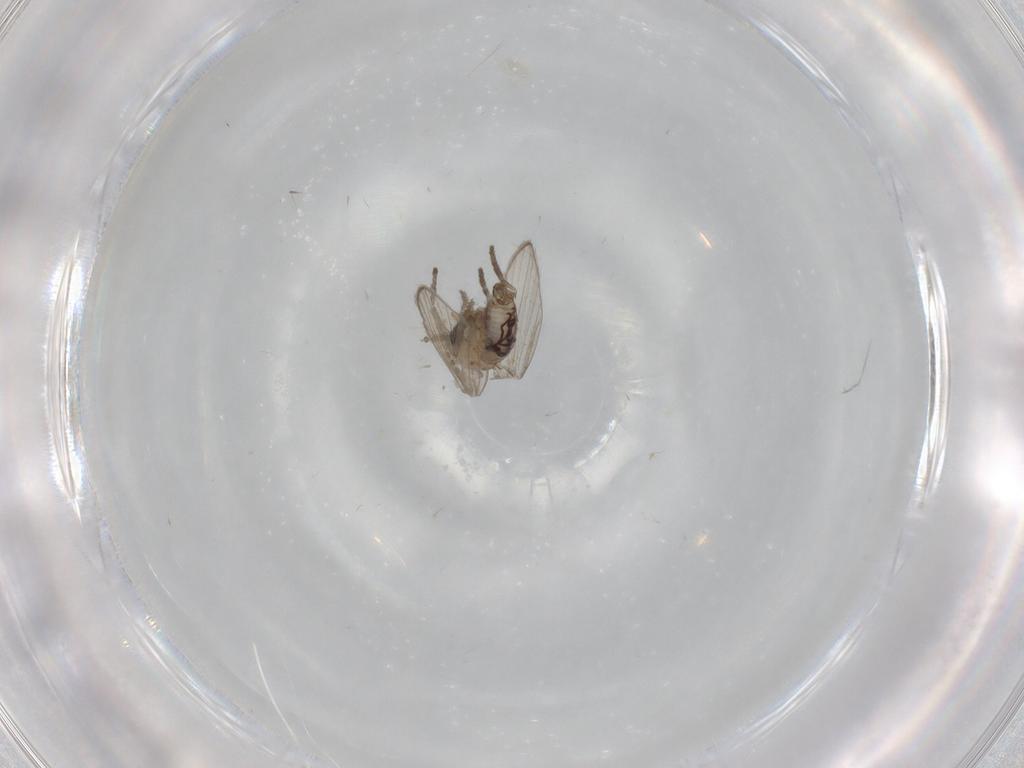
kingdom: Animalia
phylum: Arthropoda
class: Insecta
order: Diptera
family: Psychodidae
